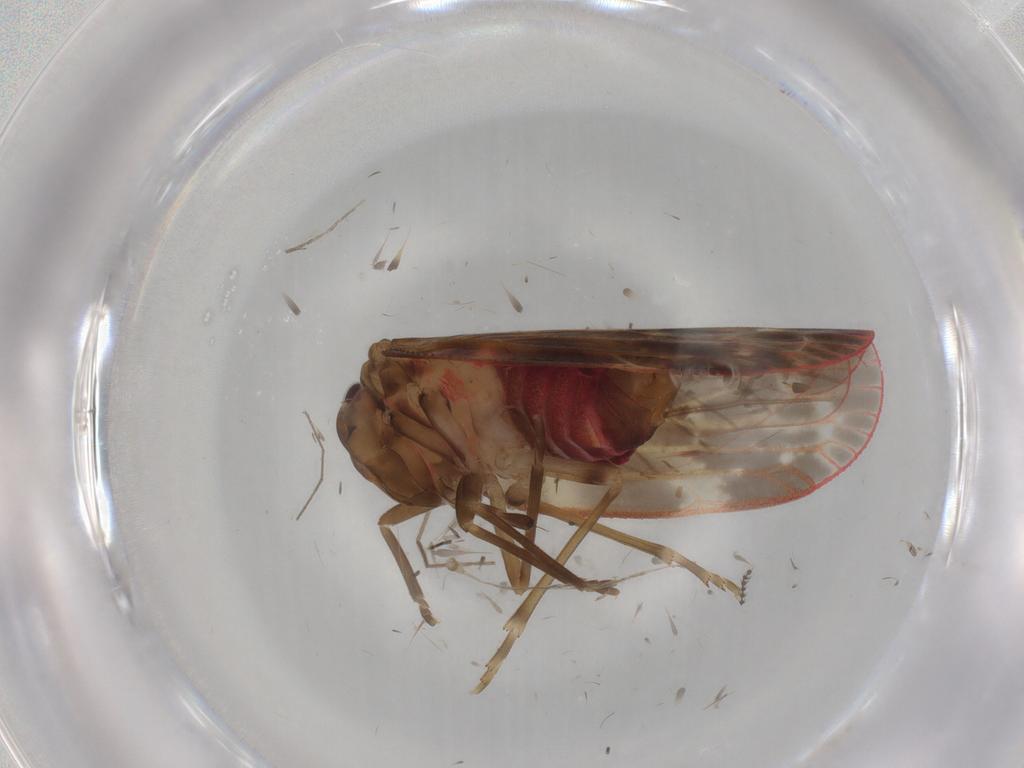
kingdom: Animalia
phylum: Arthropoda
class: Insecta
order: Hemiptera
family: Achilidae
